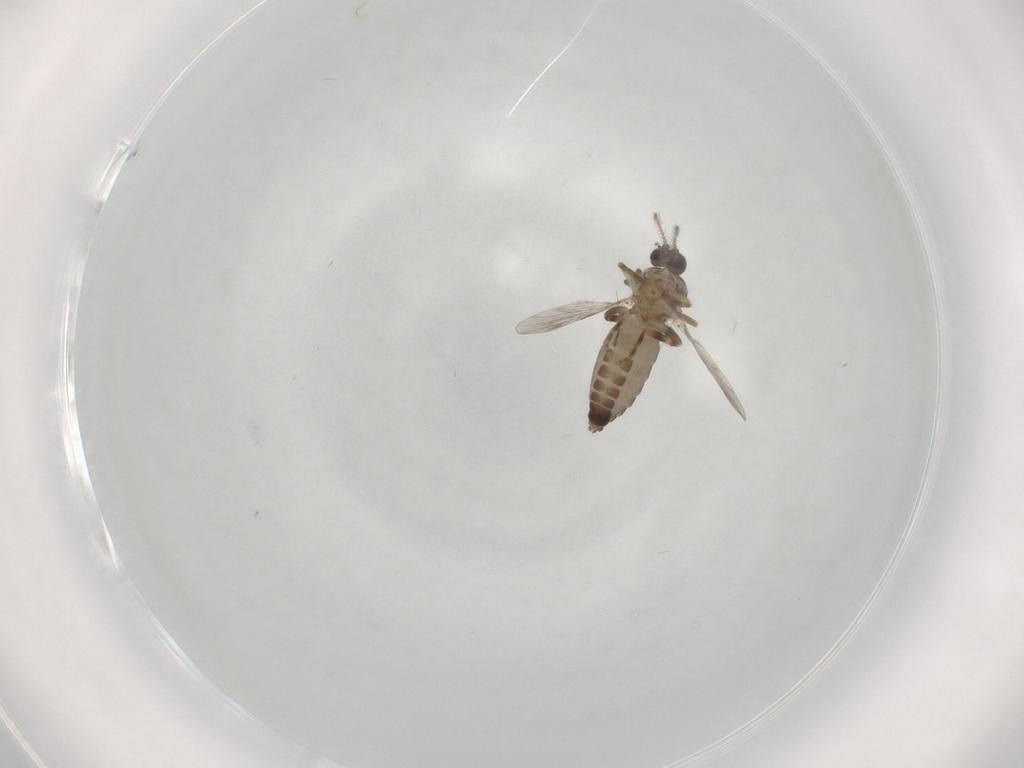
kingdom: Animalia
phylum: Arthropoda
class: Insecta
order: Diptera
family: Ceratopogonidae
